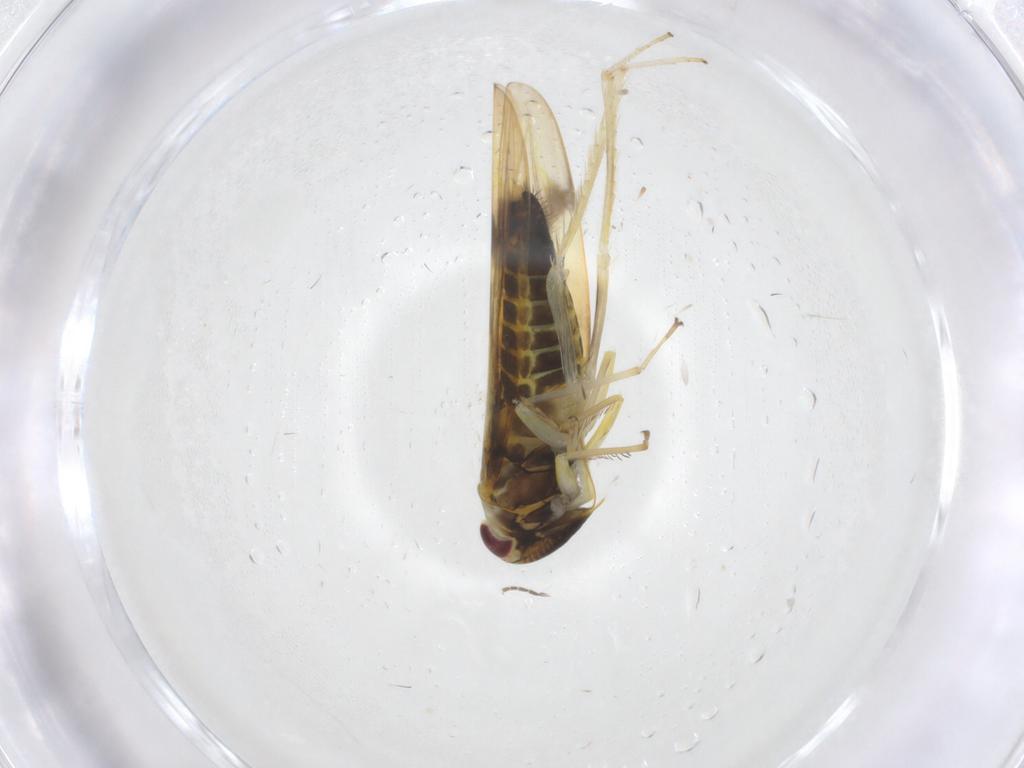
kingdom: Animalia
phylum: Arthropoda
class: Insecta
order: Hemiptera
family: Cicadellidae
